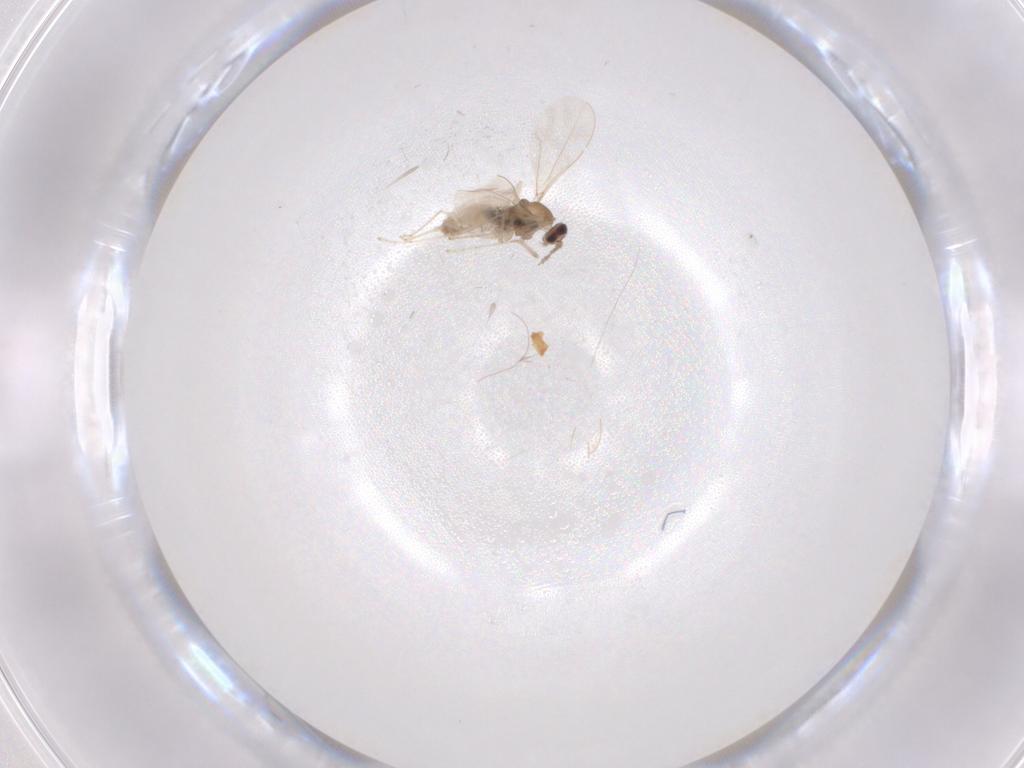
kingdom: Animalia
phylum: Arthropoda
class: Insecta
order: Diptera
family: Cecidomyiidae
